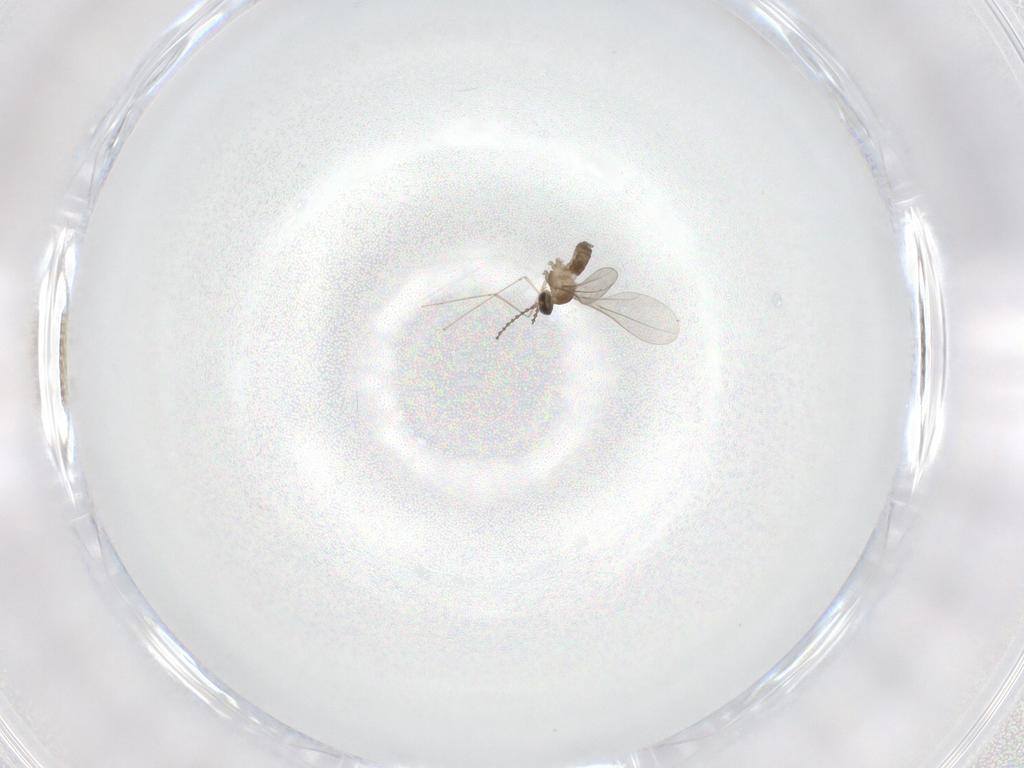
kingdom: Animalia
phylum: Arthropoda
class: Insecta
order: Diptera
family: Cecidomyiidae
